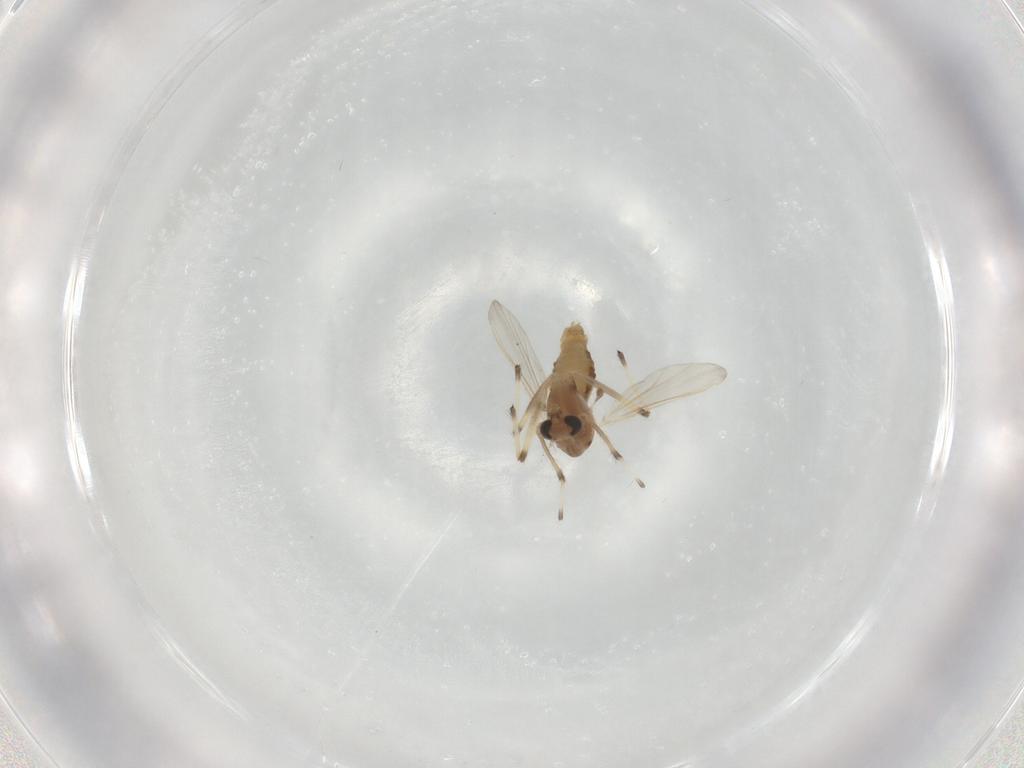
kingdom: Animalia
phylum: Arthropoda
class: Insecta
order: Diptera
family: Chironomidae
